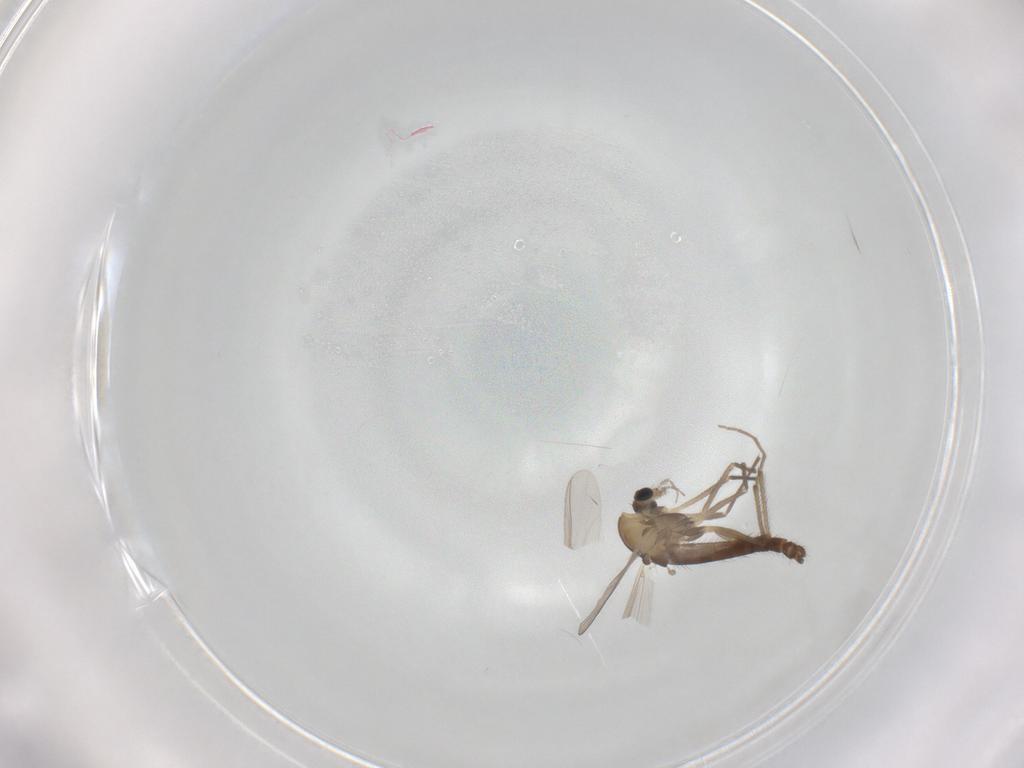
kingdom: Animalia
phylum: Arthropoda
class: Insecta
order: Diptera
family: Chironomidae
